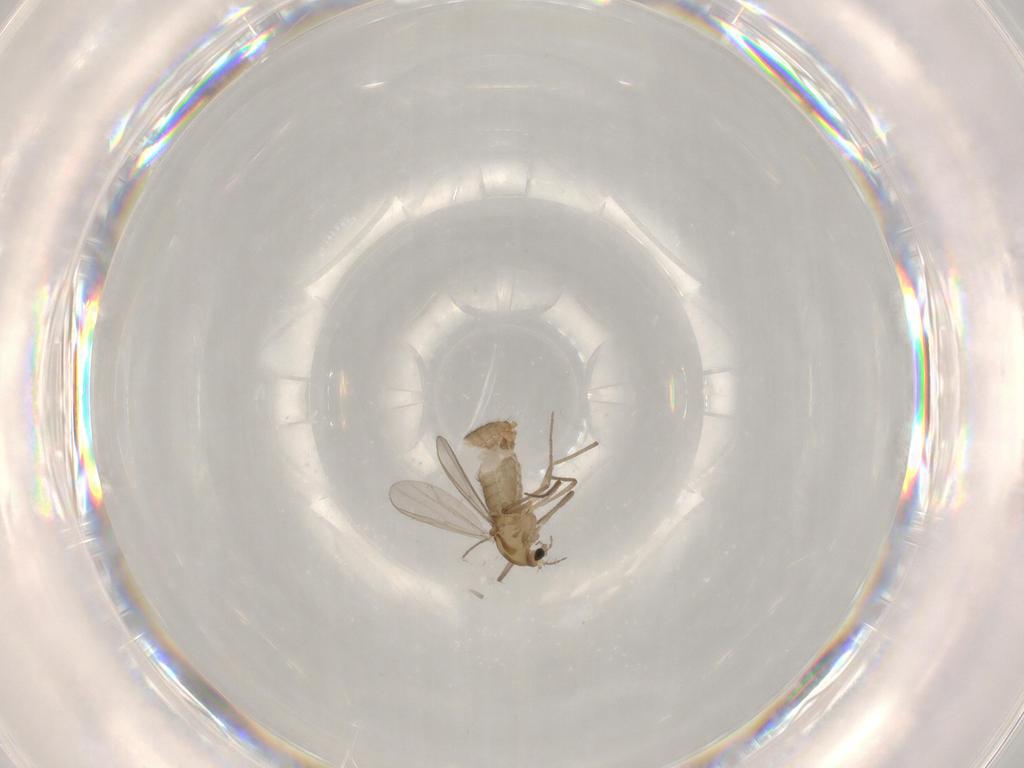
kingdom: Animalia
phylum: Arthropoda
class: Insecta
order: Diptera
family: Chironomidae
